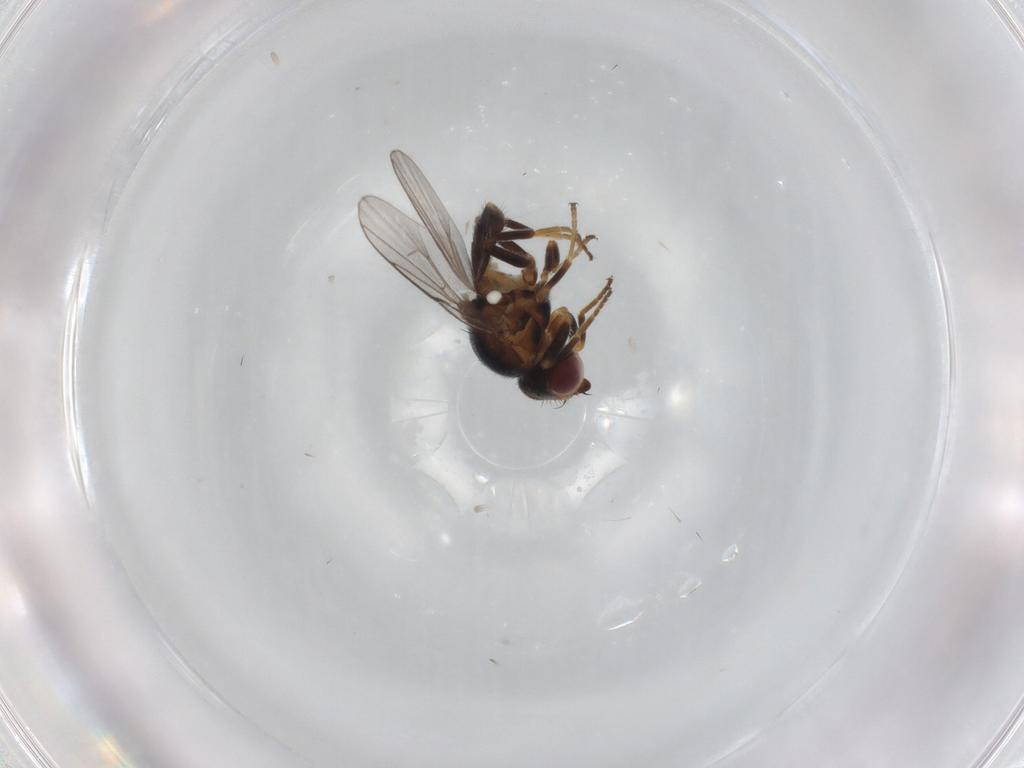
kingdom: Animalia
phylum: Arthropoda
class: Insecta
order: Diptera
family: Chloropidae
